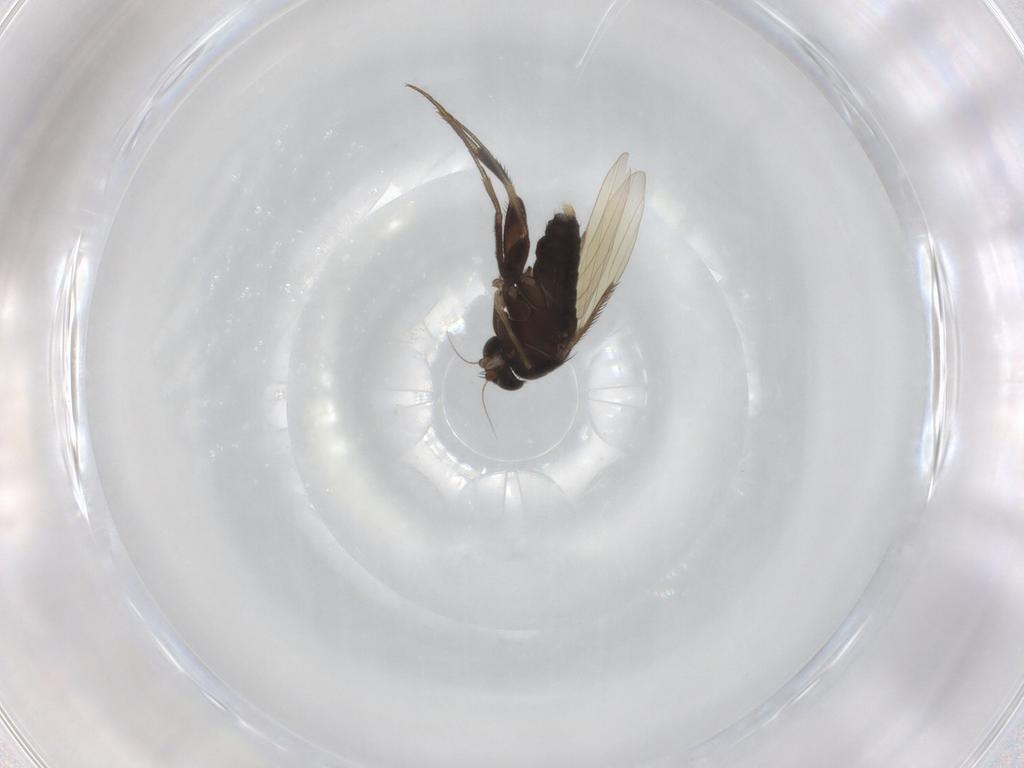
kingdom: Animalia
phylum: Arthropoda
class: Insecta
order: Diptera
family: Phoridae
